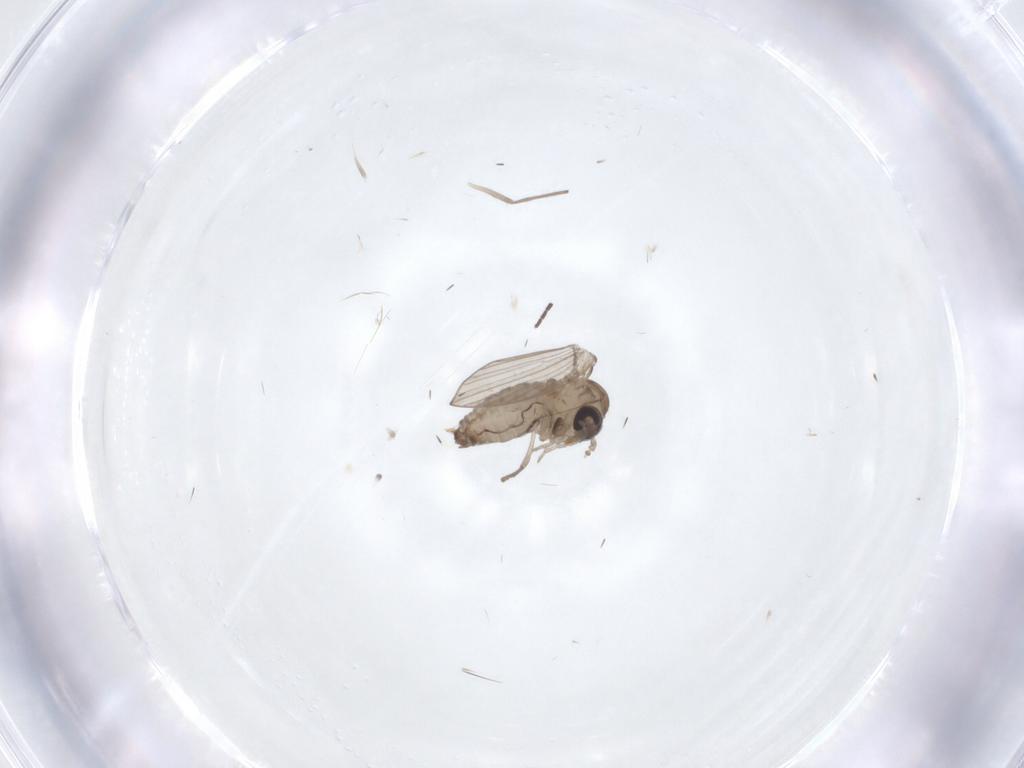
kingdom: Animalia
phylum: Arthropoda
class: Insecta
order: Diptera
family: Psychodidae
